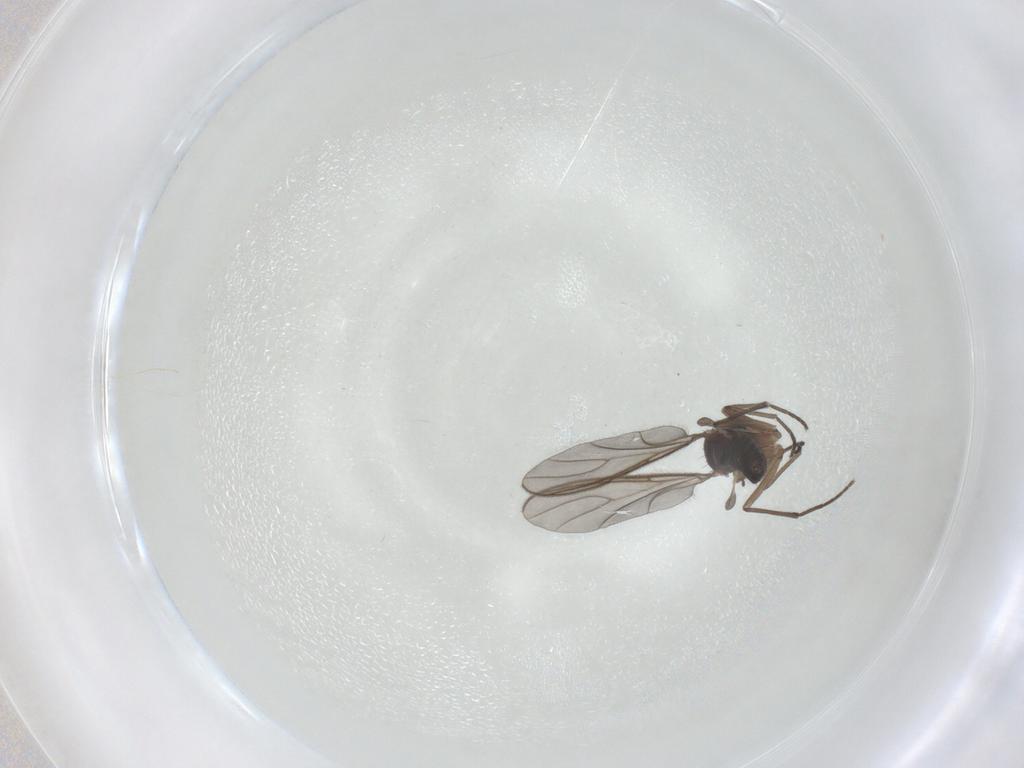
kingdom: Animalia
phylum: Arthropoda
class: Insecta
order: Diptera
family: Sciaridae
